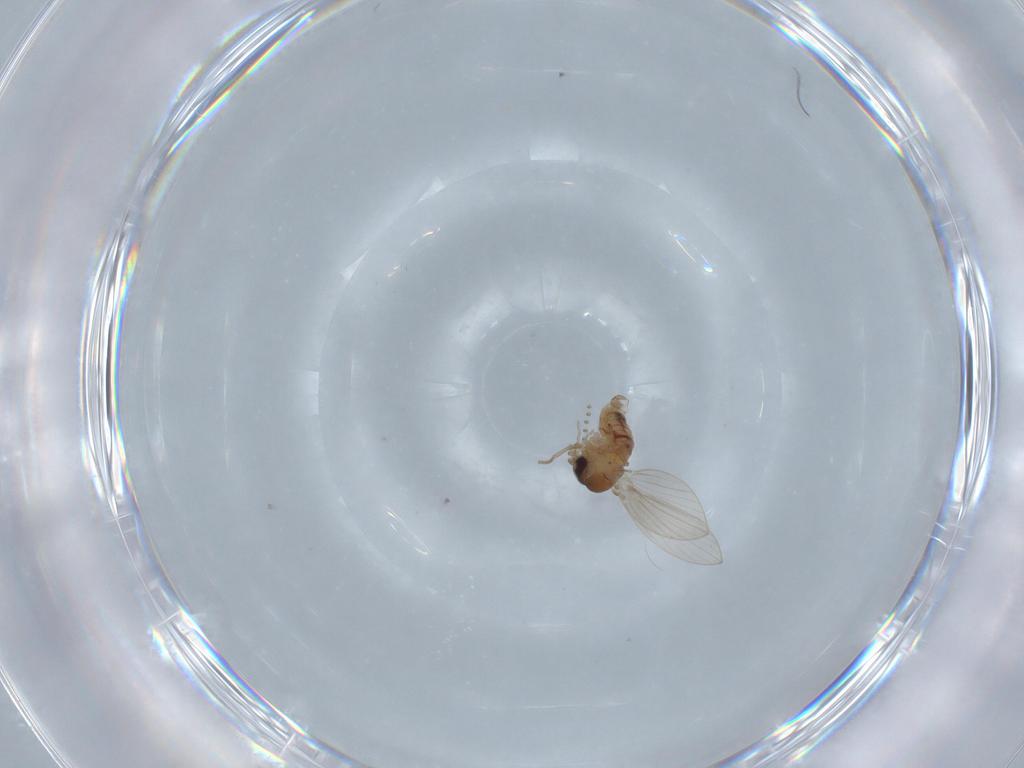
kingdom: Animalia
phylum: Arthropoda
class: Insecta
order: Diptera
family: Psychodidae
